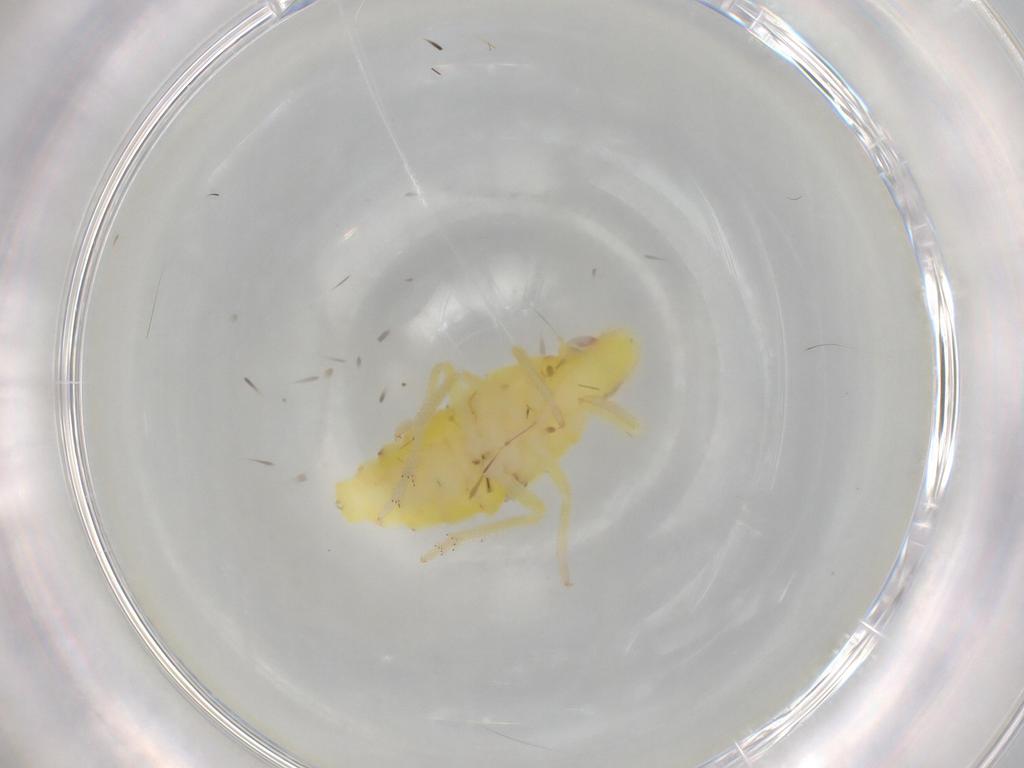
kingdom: Animalia
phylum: Arthropoda
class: Insecta
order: Hemiptera
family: Tropiduchidae
